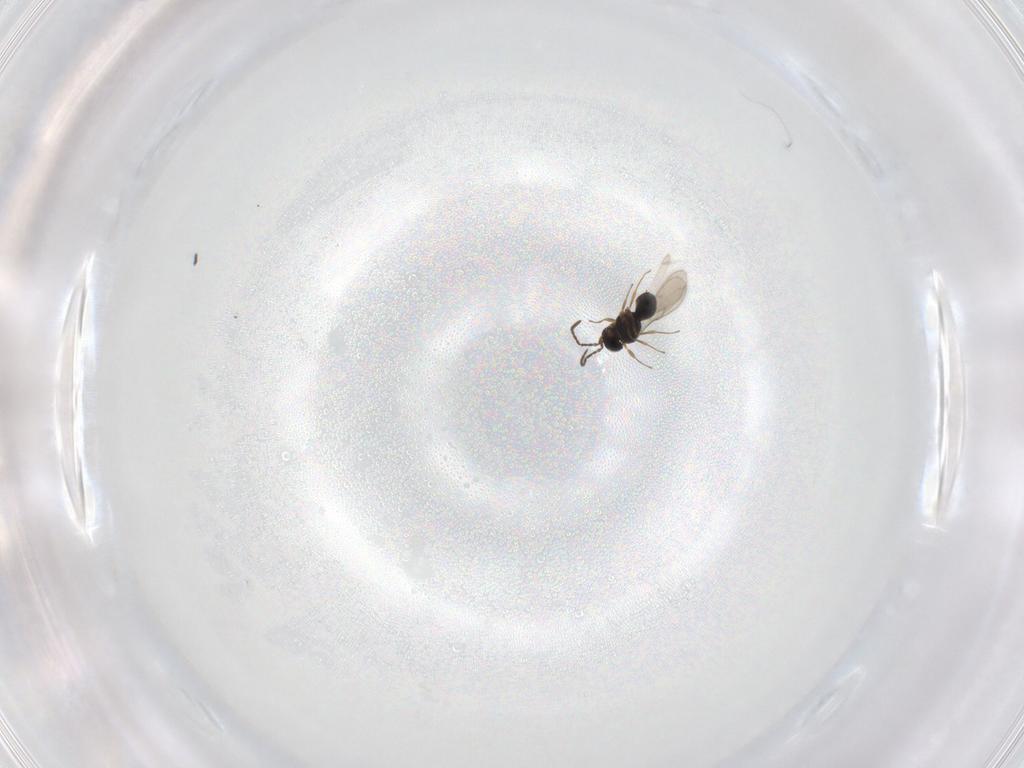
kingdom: Animalia
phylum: Arthropoda
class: Insecta
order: Hymenoptera
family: Scelionidae
